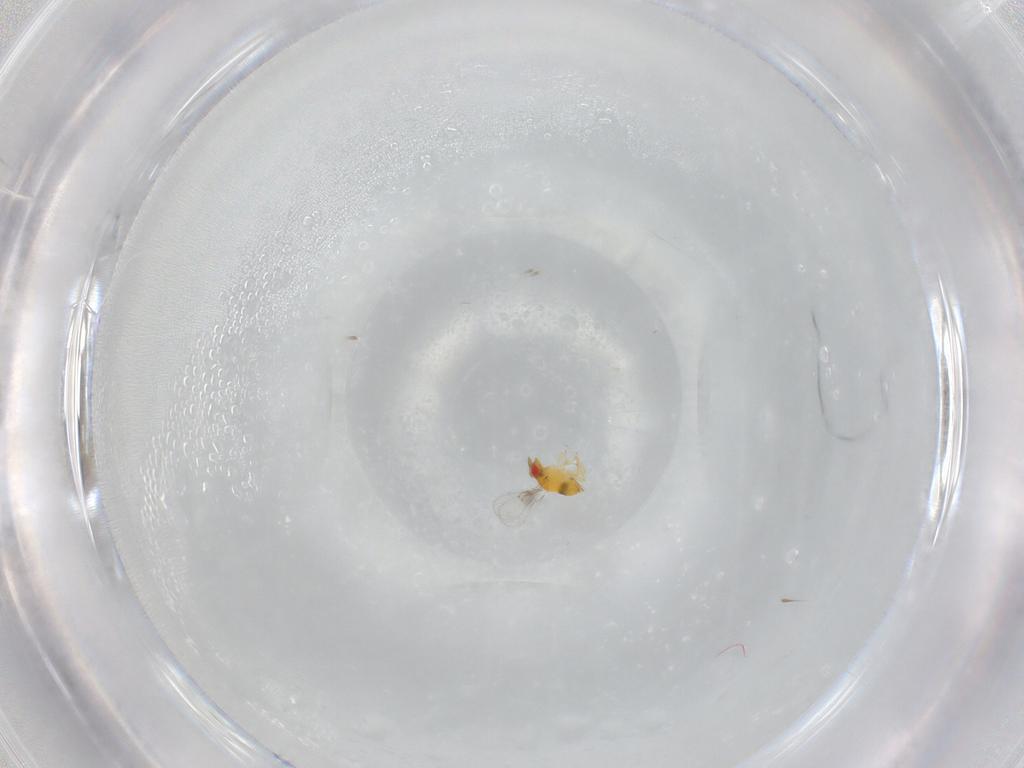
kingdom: Animalia
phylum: Arthropoda
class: Insecta
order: Hymenoptera
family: Trichogrammatidae
